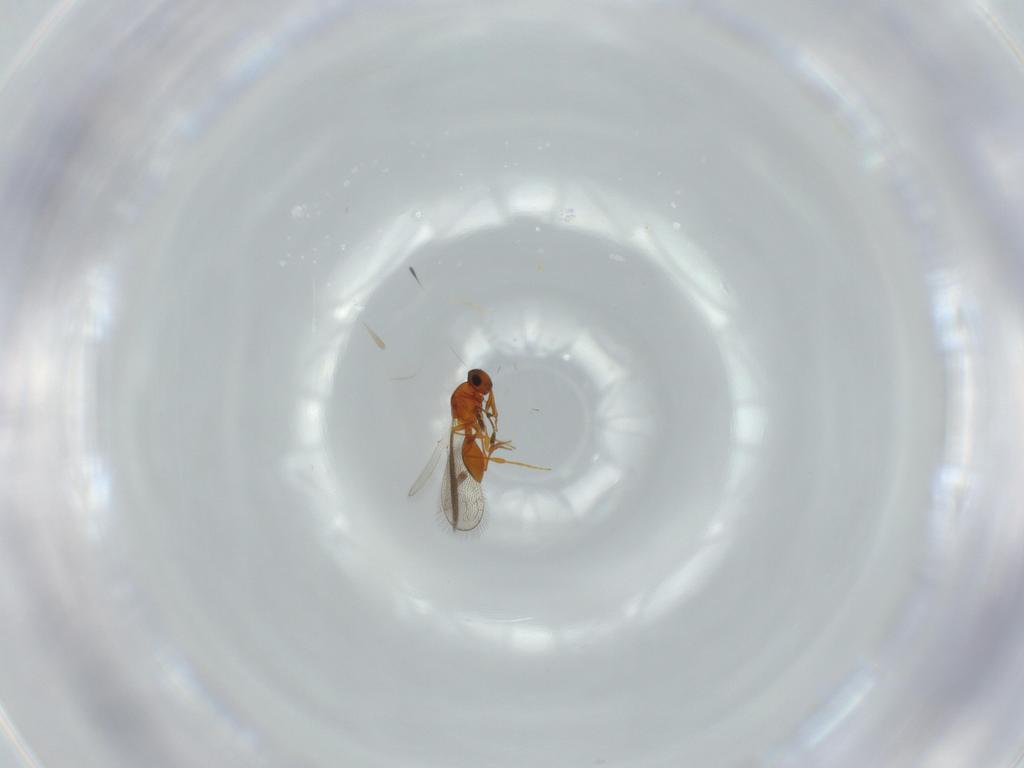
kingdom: Animalia
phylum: Arthropoda
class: Insecta
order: Hymenoptera
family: Platygastridae
